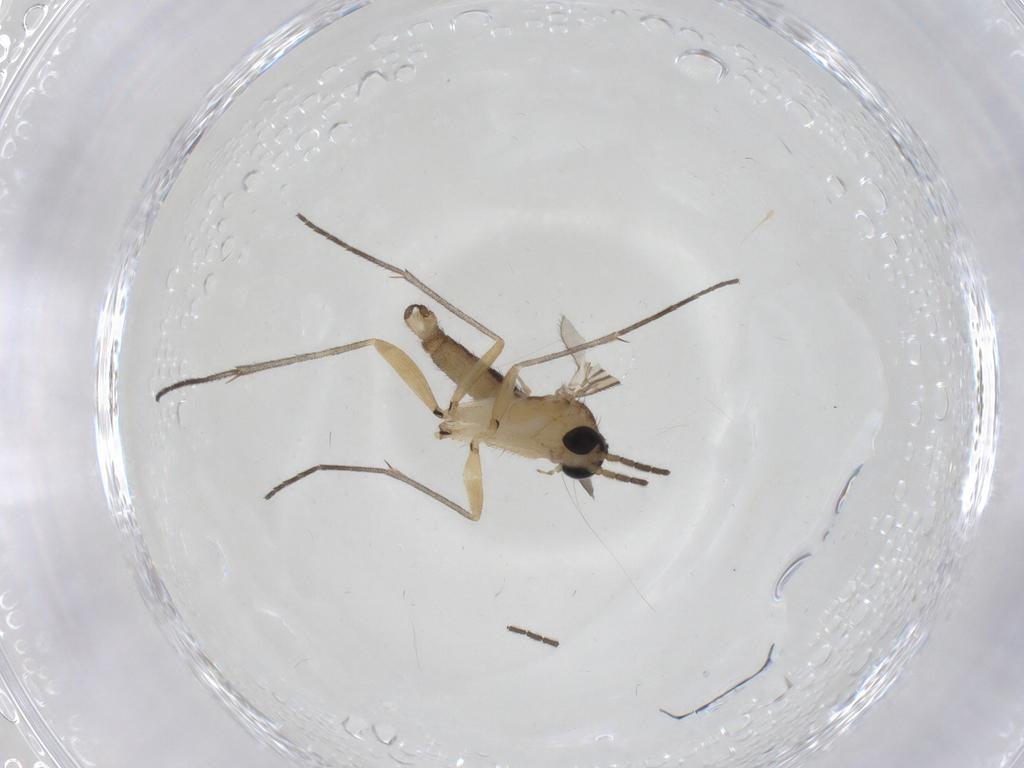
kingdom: Animalia
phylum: Arthropoda
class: Insecta
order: Diptera
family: Sciaridae
